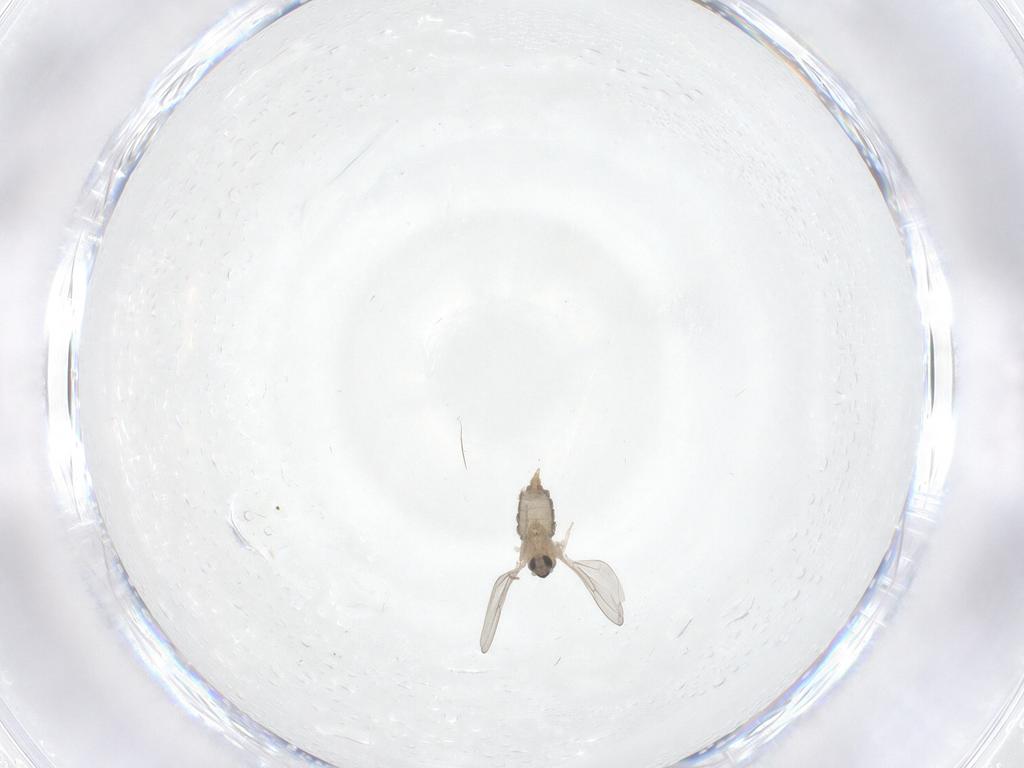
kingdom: Animalia
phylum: Arthropoda
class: Insecta
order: Diptera
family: Cecidomyiidae
